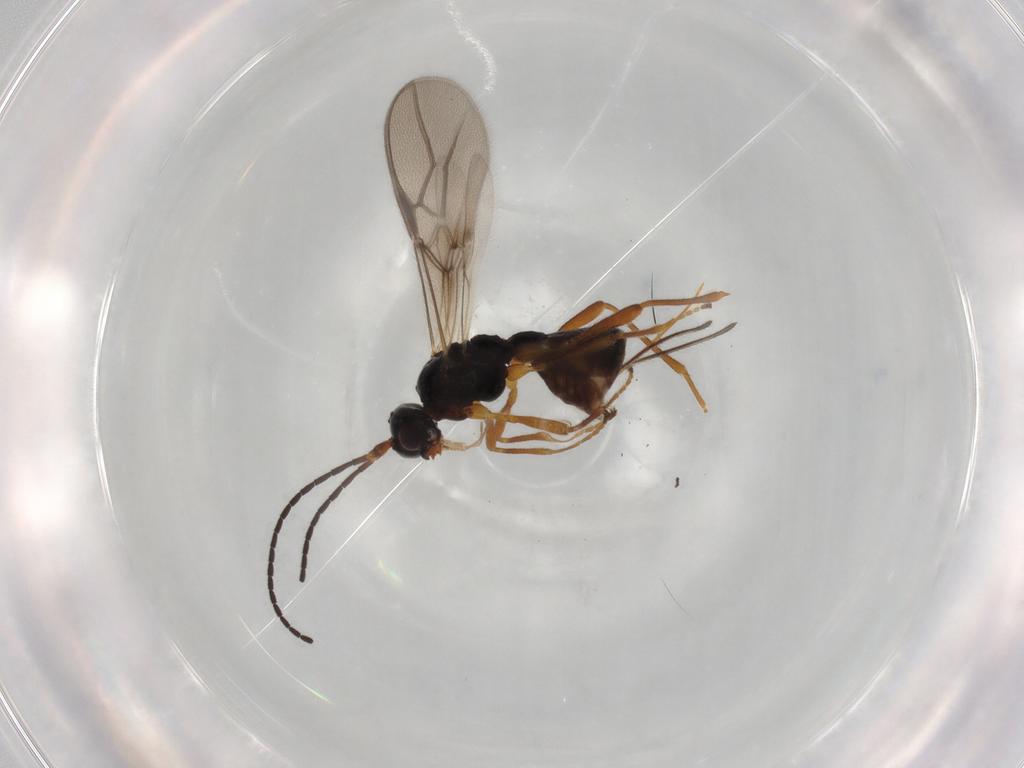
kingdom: Animalia
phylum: Arthropoda
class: Insecta
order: Hymenoptera
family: Braconidae
